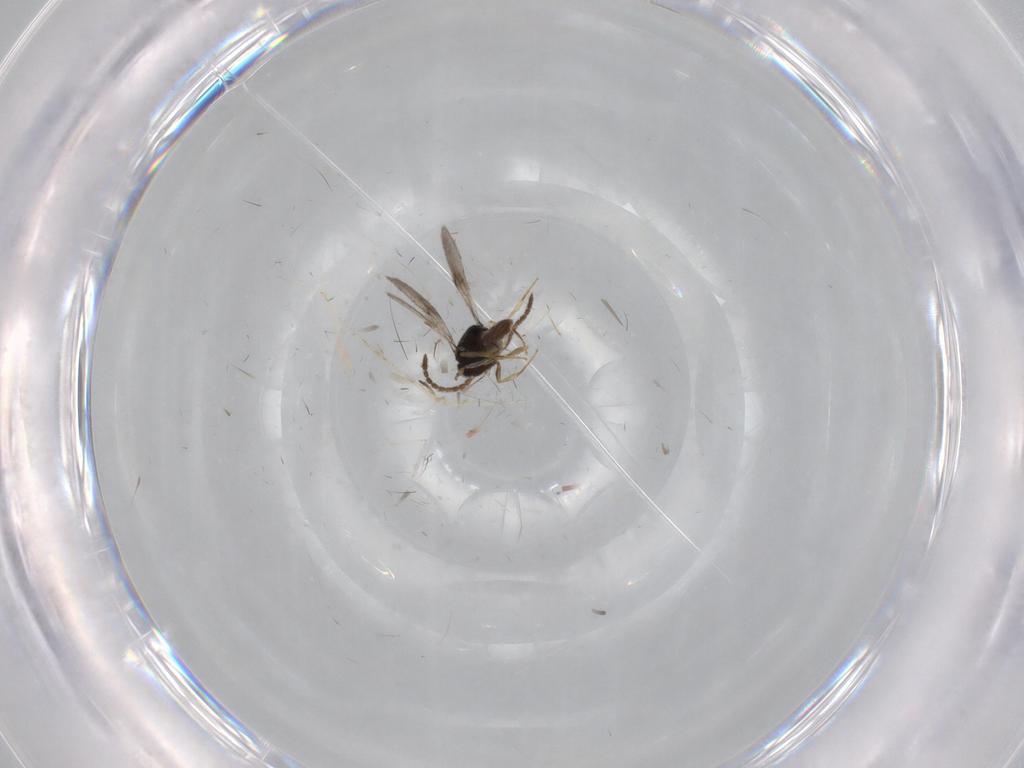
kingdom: Animalia
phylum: Arthropoda
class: Insecta
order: Hymenoptera
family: Scelionidae
